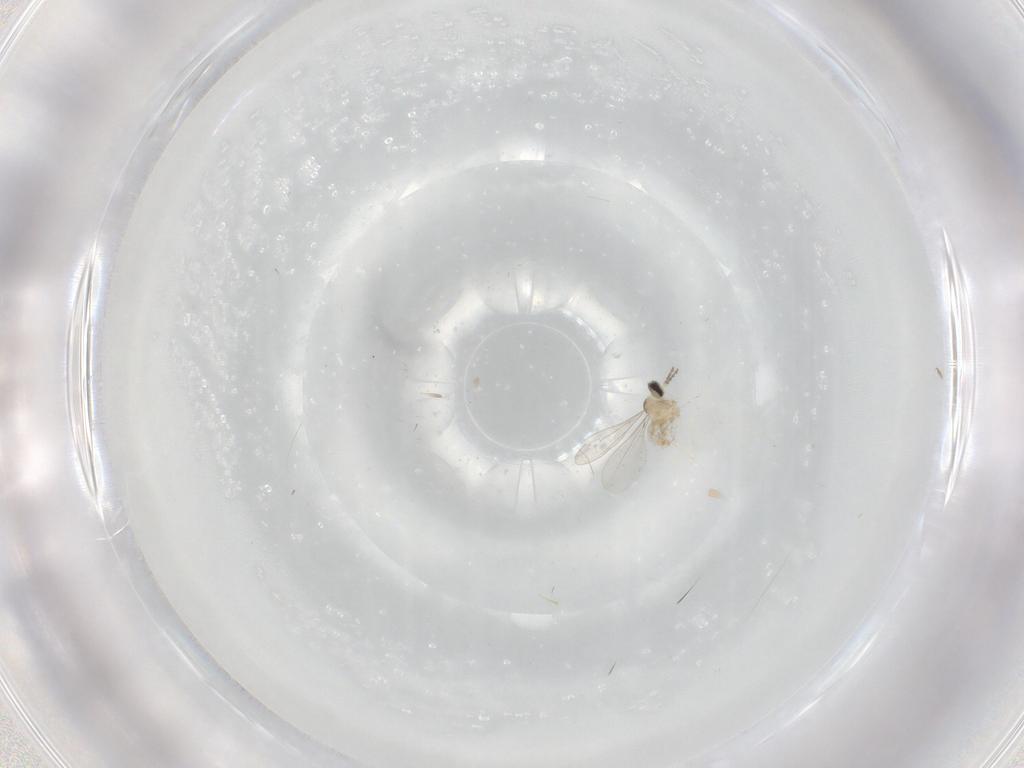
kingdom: Animalia
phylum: Arthropoda
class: Insecta
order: Diptera
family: Cecidomyiidae
